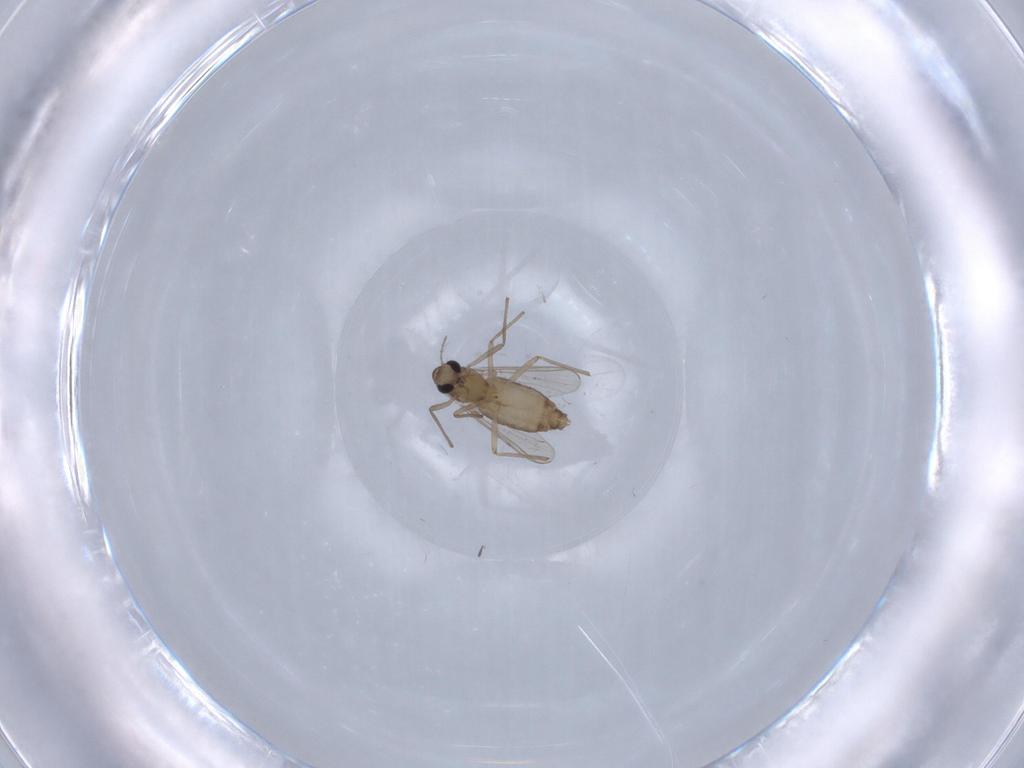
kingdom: Animalia
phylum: Arthropoda
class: Insecta
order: Diptera
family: Chironomidae
